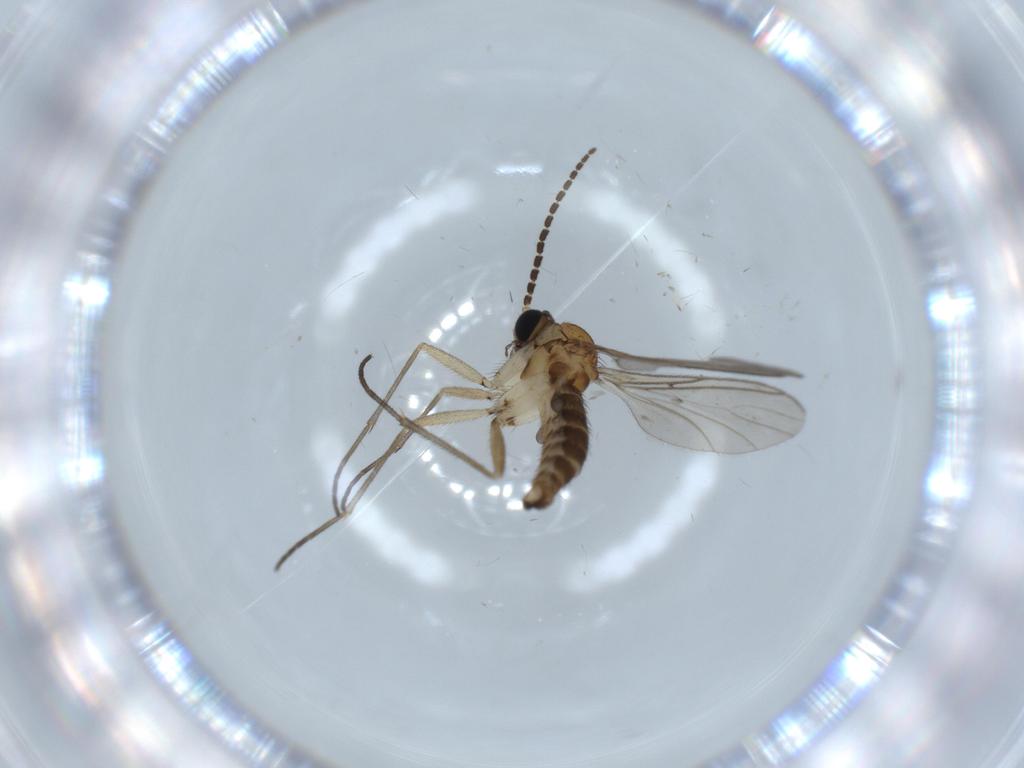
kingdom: Animalia
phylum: Arthropoda
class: Insecta
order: Diptera
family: Sciaridae
